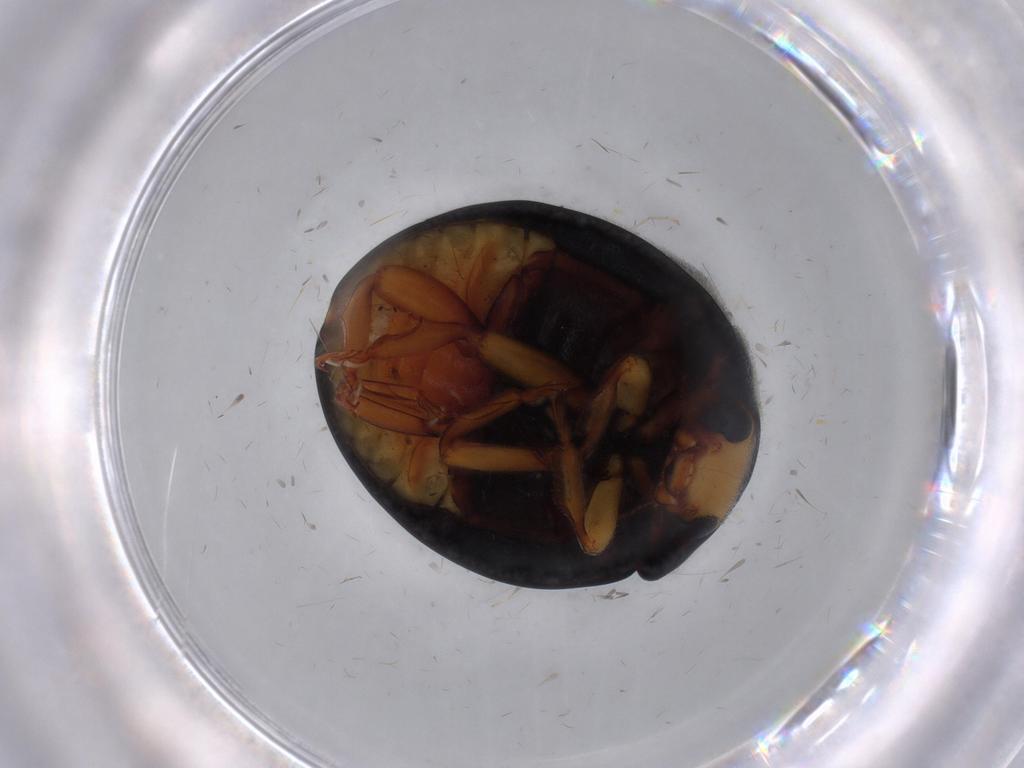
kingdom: Animalia
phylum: Arthropoda
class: Insecta
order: Coleoptera
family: Coccinellidae
